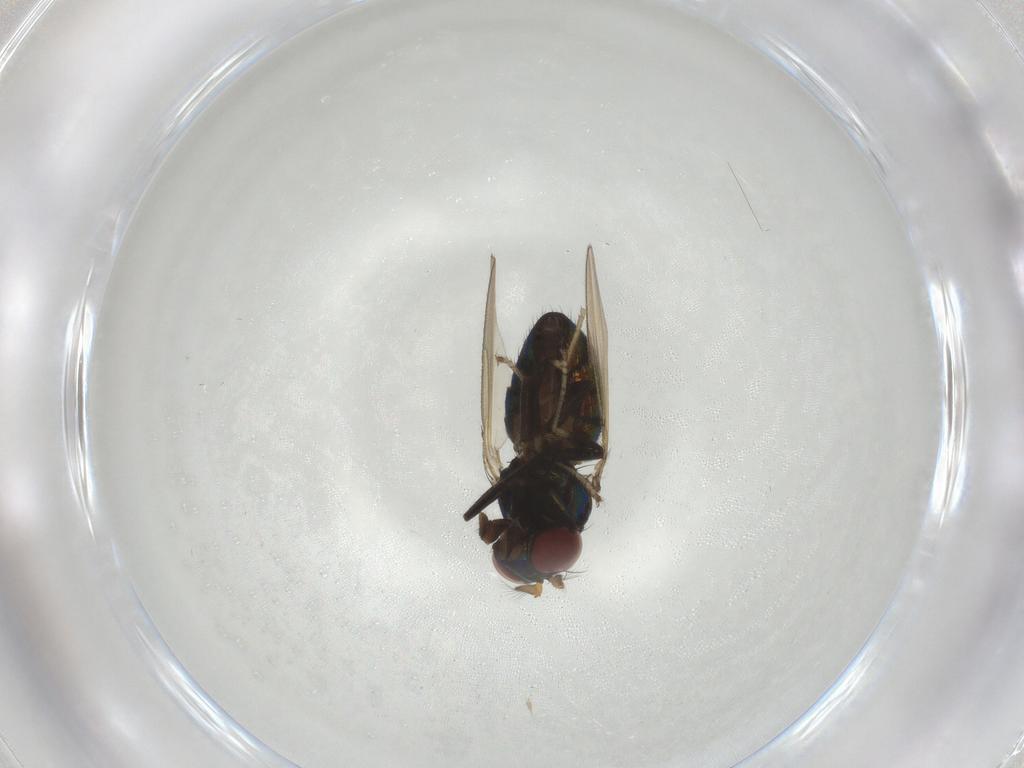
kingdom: Animalia
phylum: Arthropoda
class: Insecta
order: Diptera
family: Ephydridae
